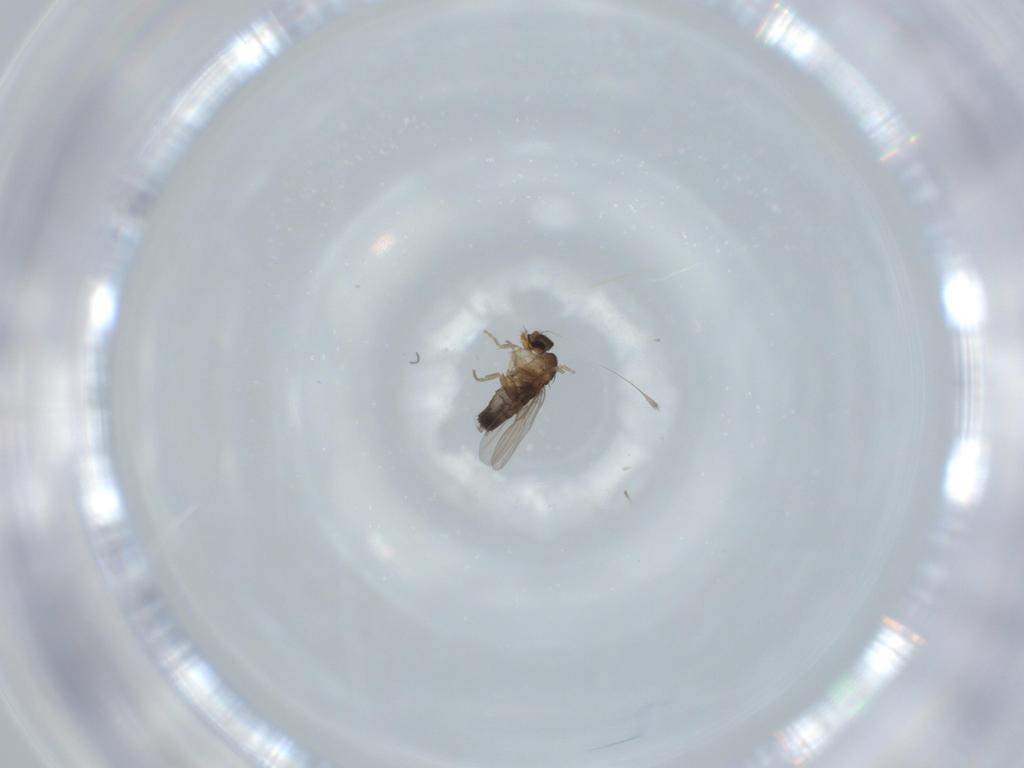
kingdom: Animalia
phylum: Arthropoda
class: Insecta
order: Diptera
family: Phoridae
